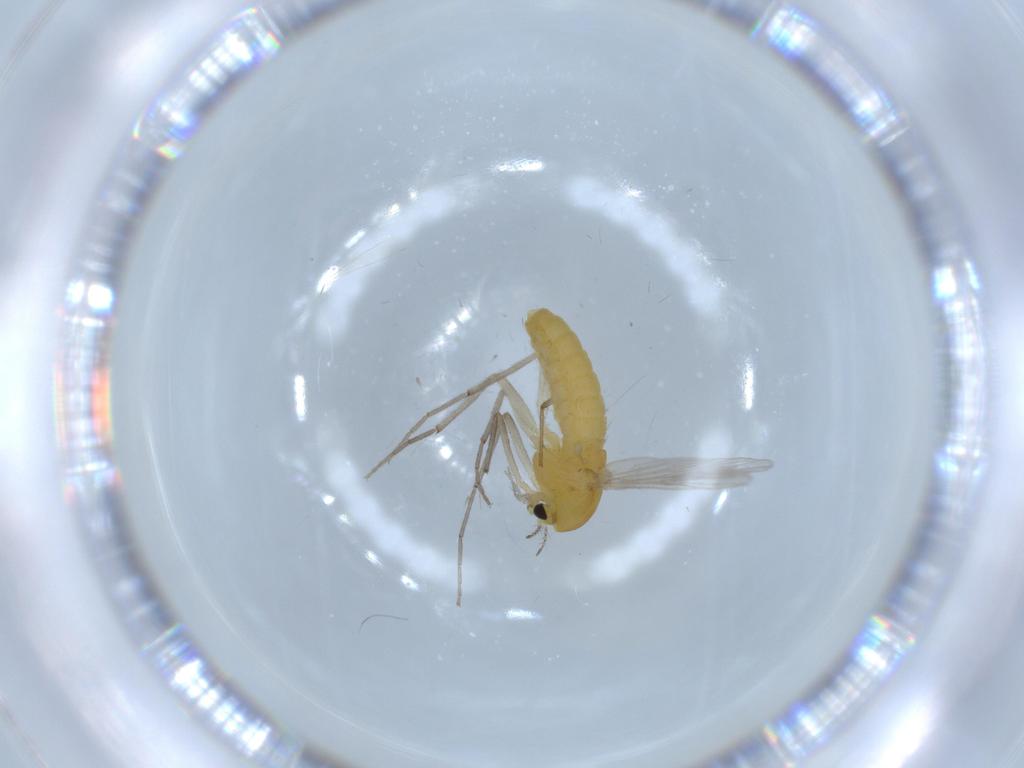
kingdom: Animalia
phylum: Arthropoda
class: Insecta
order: Diptera
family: Chironomidae
